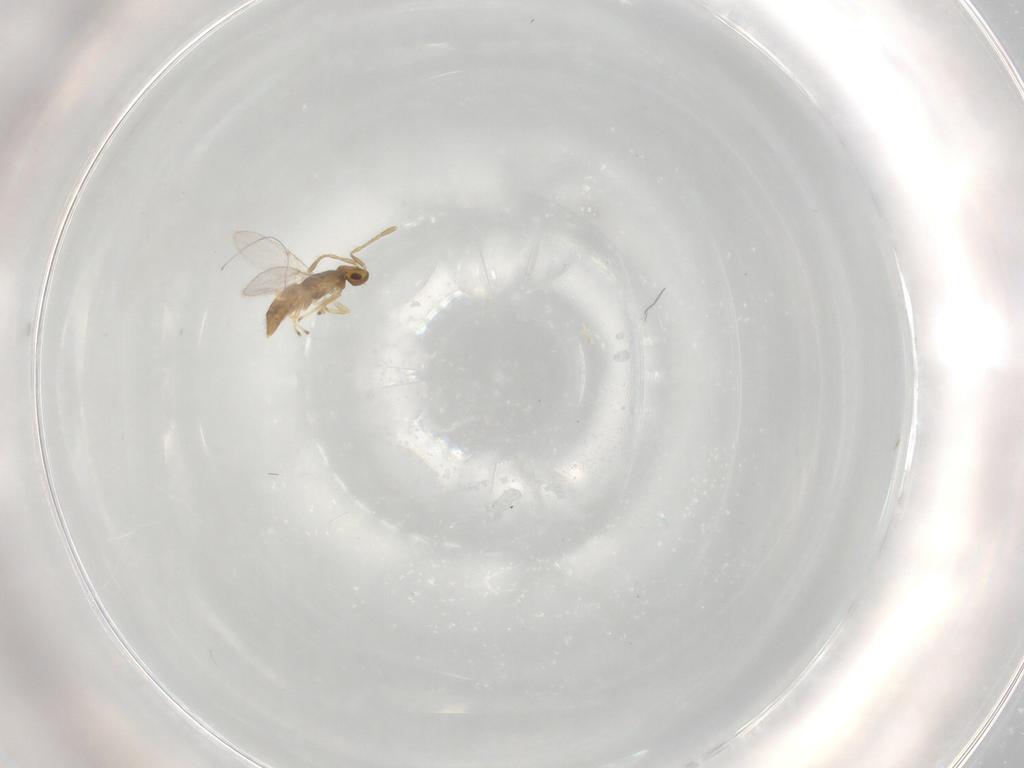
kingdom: Animalia
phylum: Arthropoda
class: Insecta
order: Hymenoptera
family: Encyrtidae
